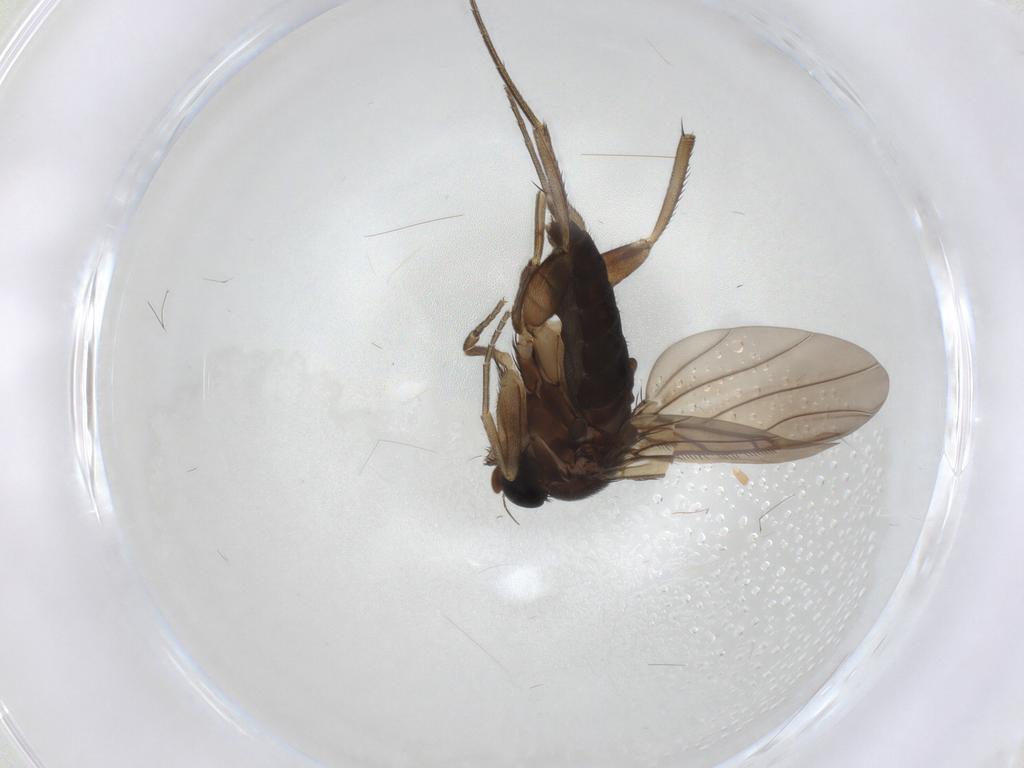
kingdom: Animalia
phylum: Arthropoda
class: Insecta
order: Diptera
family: Phoridae
